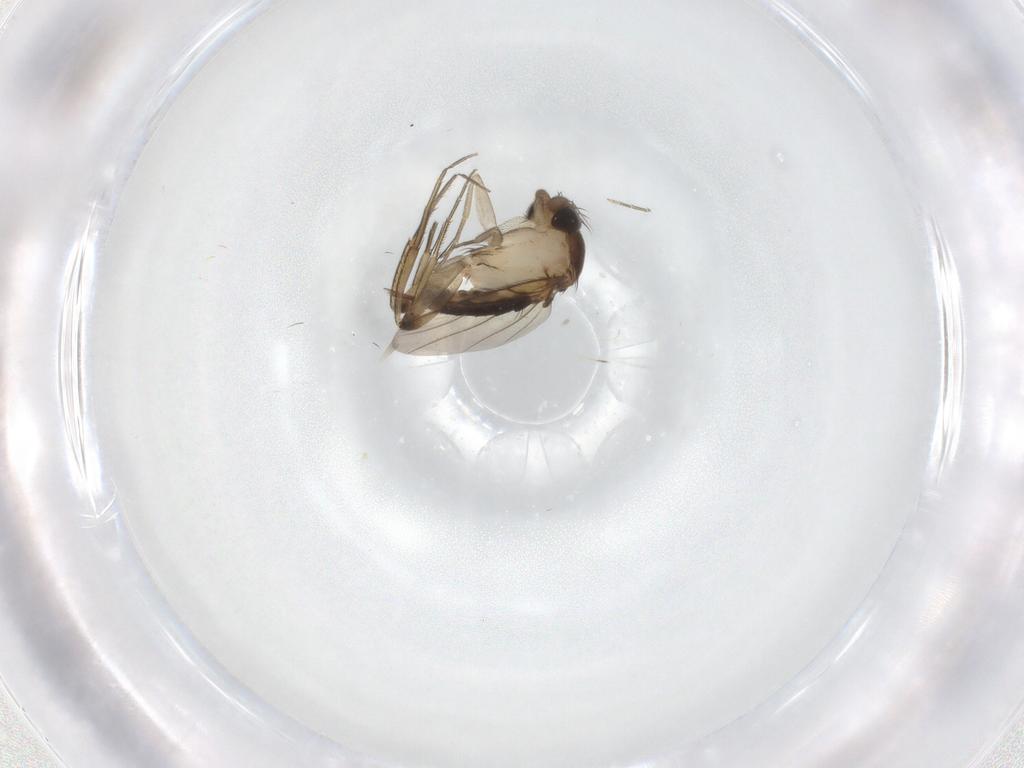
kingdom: Animalia
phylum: Arthropoda
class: Insecta
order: Diptera
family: Phoridae
